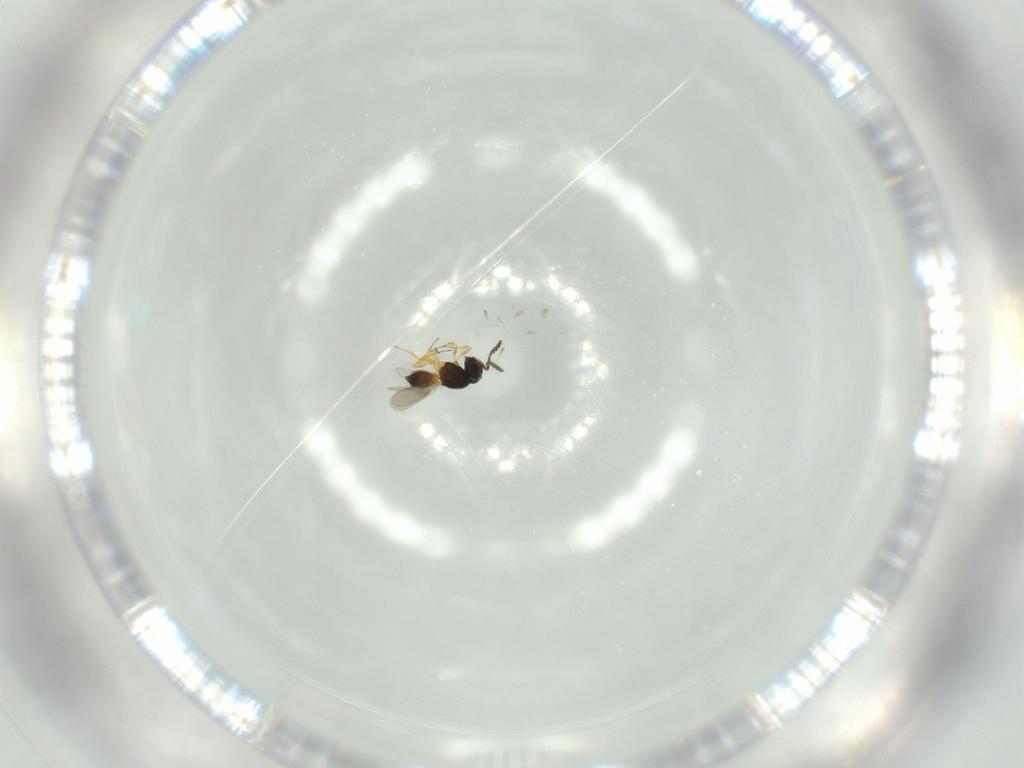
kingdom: Animalia
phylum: Arthropoda
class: Insecta
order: Hymenoptera
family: Scelionidae
